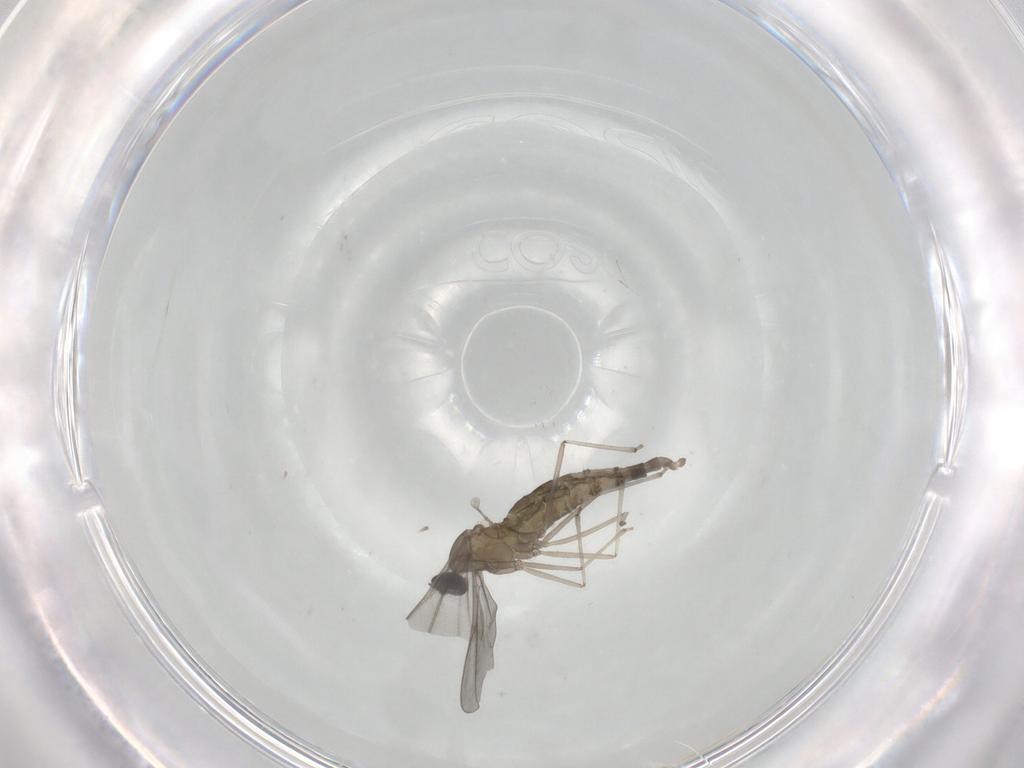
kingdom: Animalia
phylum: Arthropoda
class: Insecta
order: Diptera
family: Cecidomyiidae
